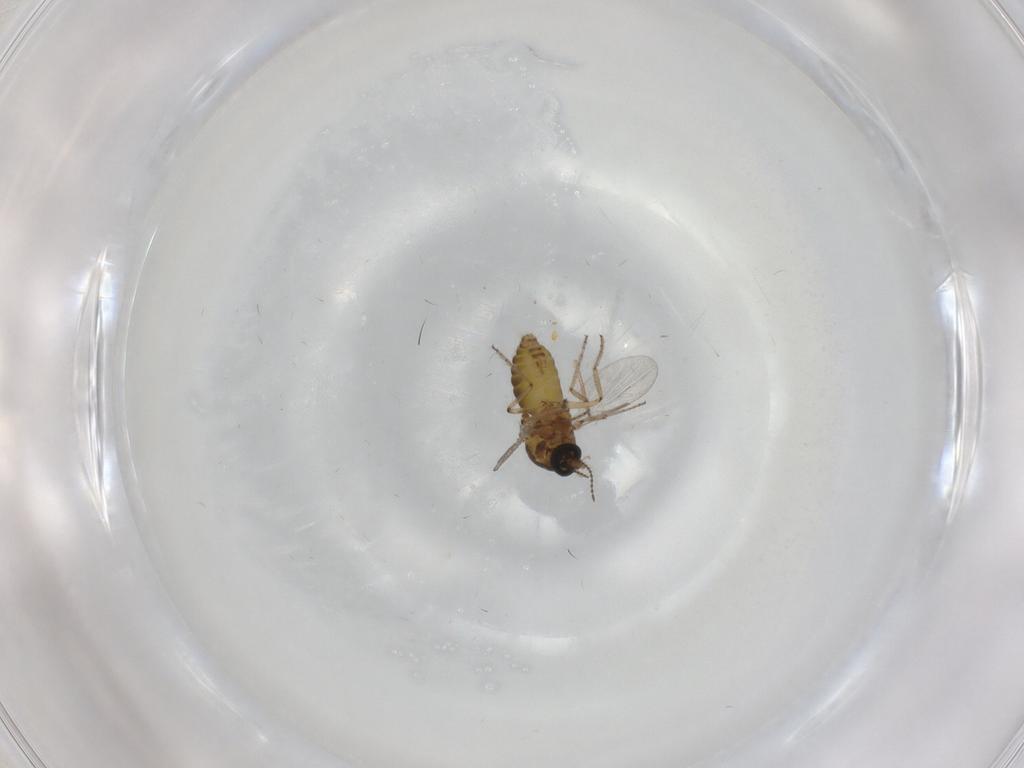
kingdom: Animalia
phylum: Arthropoda
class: Insecta
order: Diptera
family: Ceratopogonidae
